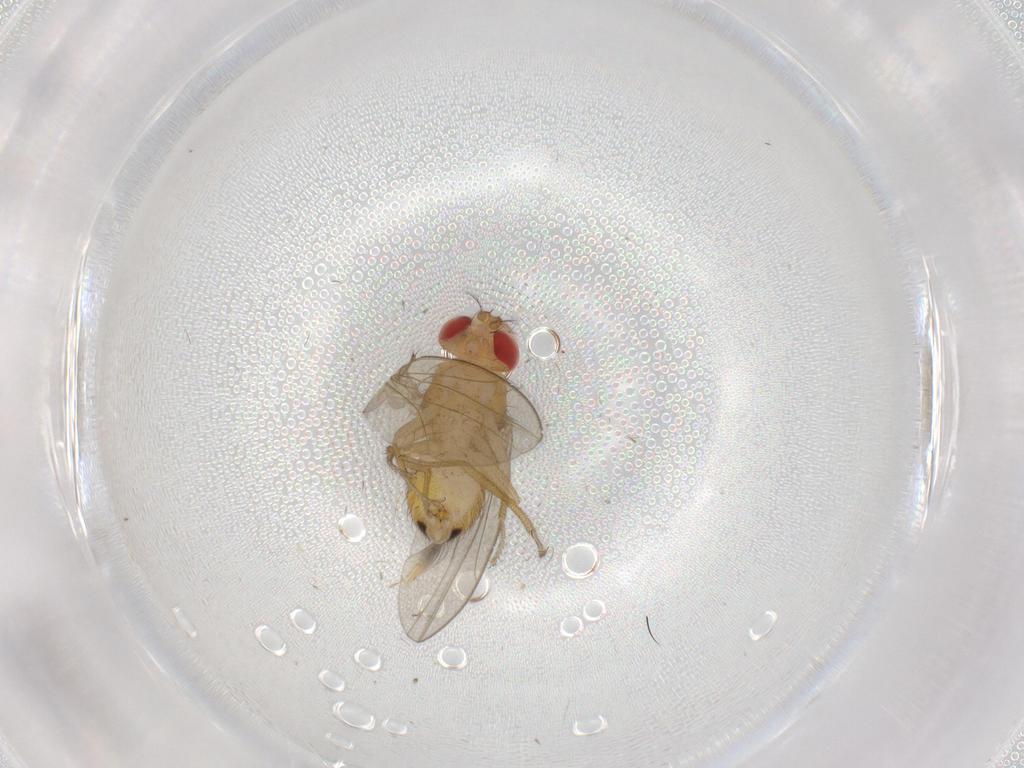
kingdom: Animalia
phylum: Arthropoda
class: Insecta
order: Diptera
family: Drosophilidae
